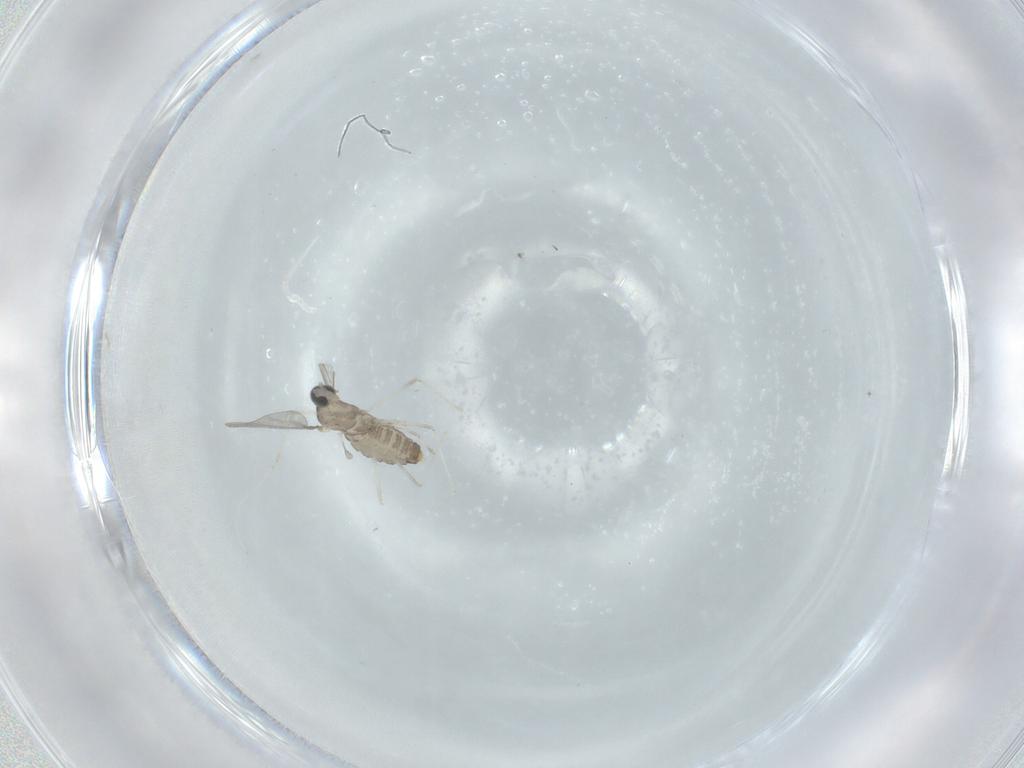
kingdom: Animalia
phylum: Arthropoda
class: Insecta
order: Diptera
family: Cecidomyiidae
